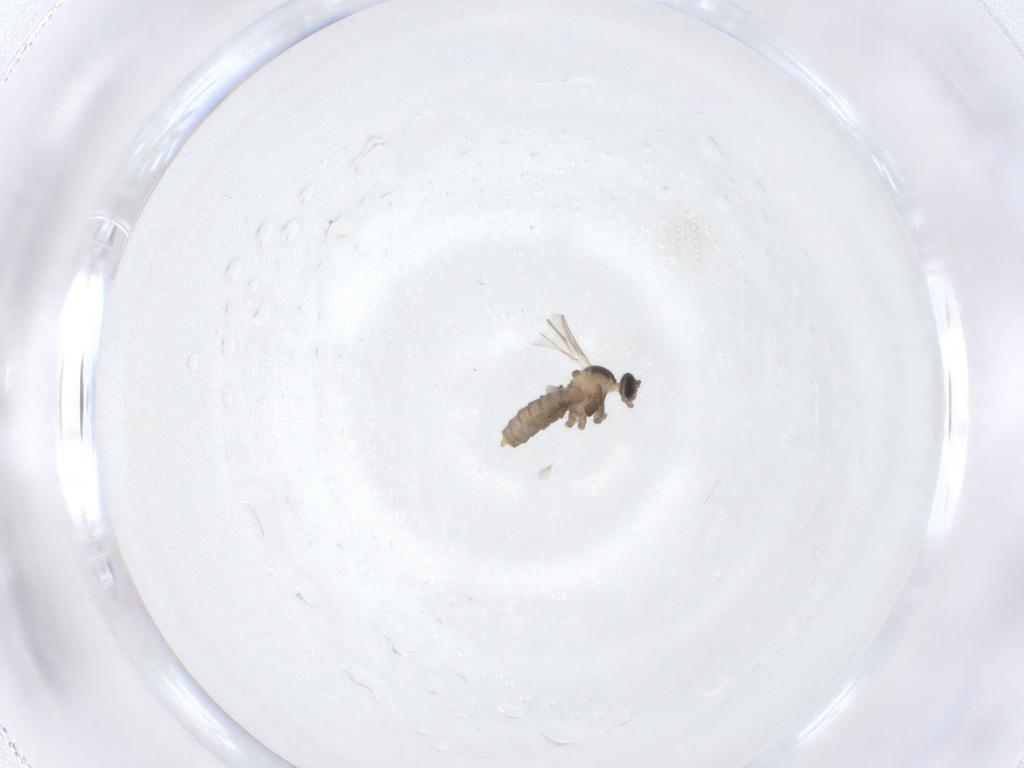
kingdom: Animalia
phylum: Arthropoda
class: Insecta
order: Diptera
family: Cecidomyiidae
